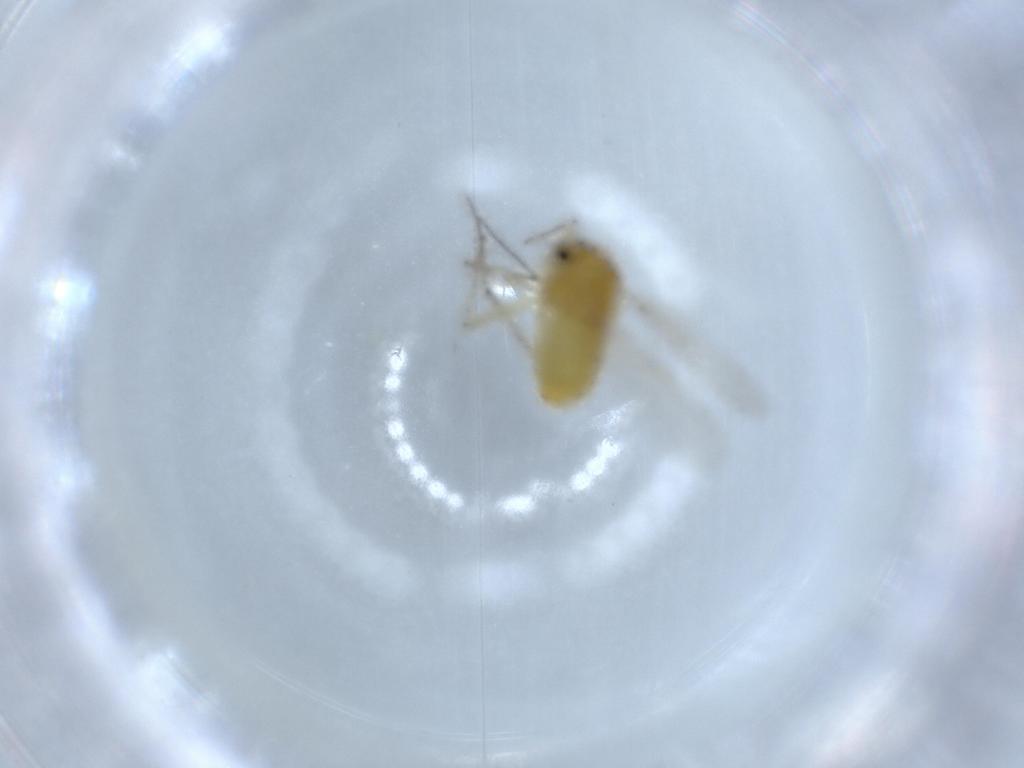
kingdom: Animalia
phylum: Arthropoda
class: Insecta
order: Diptera
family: Chironomidae
